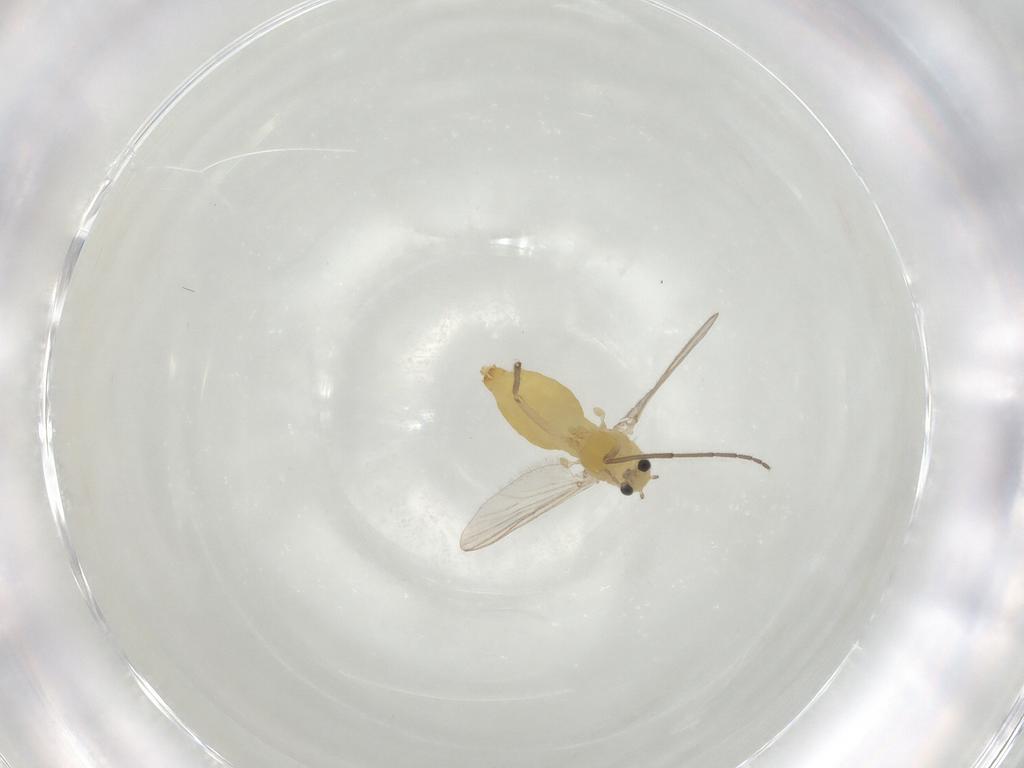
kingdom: Animalia
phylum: Arthropoda
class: Insecta
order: Diptera
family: Chironomidae
